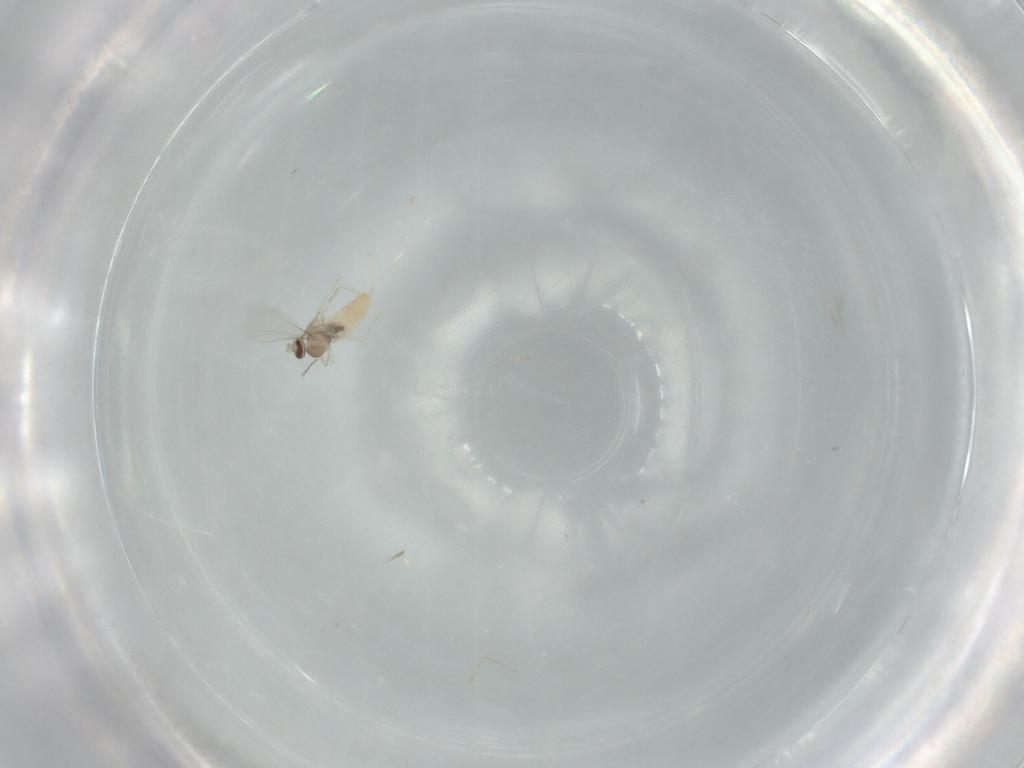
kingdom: Animalia
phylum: Arthropoda
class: Insecta
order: Diptera
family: Cecidomyiidae
